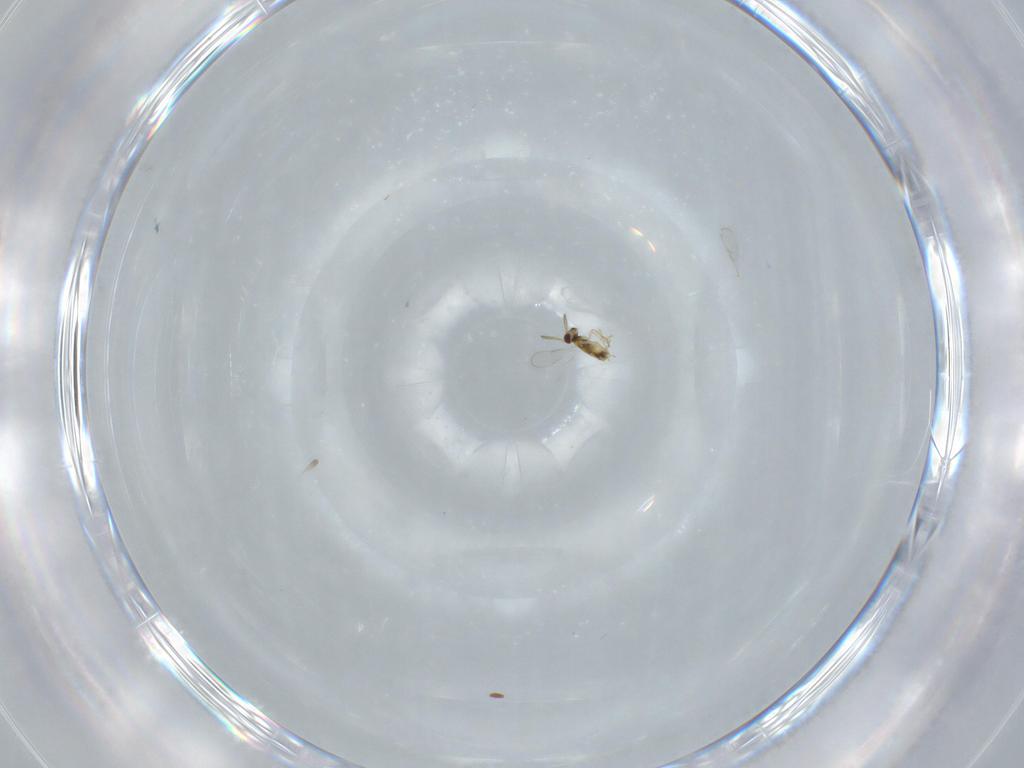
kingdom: Animalia
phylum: Arthropoda
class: Insecta
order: Hymenoptera
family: Aphelinidae
